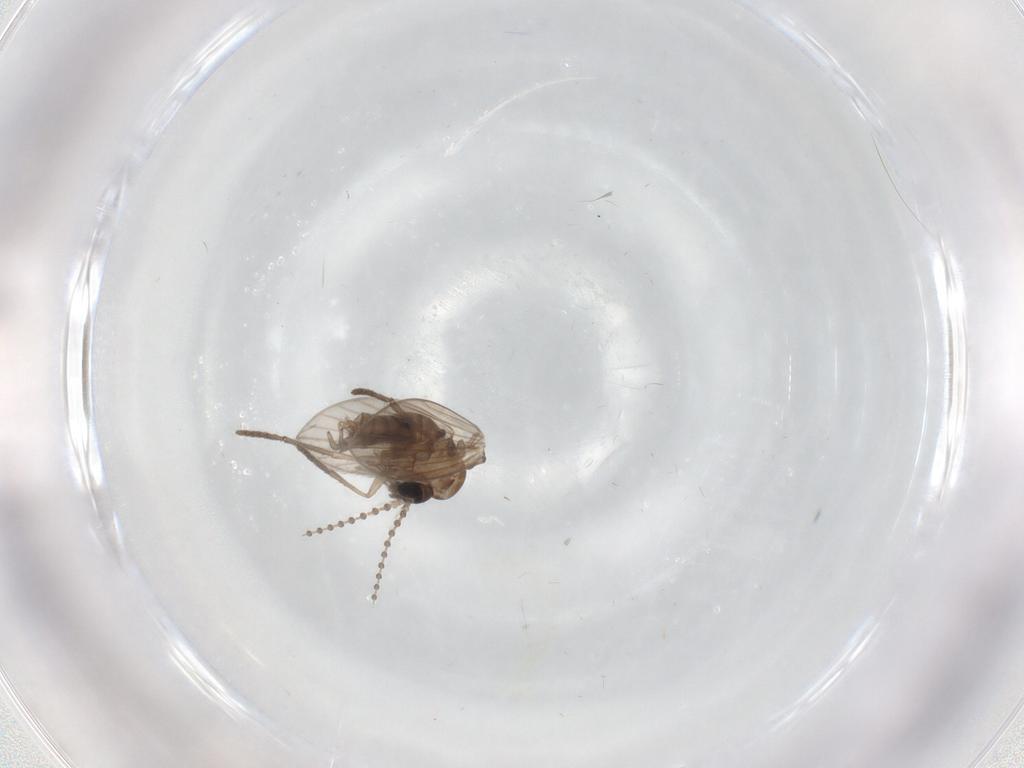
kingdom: Animalia
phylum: Arthropoda
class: Insecta
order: Diptera
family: Psychodidae
